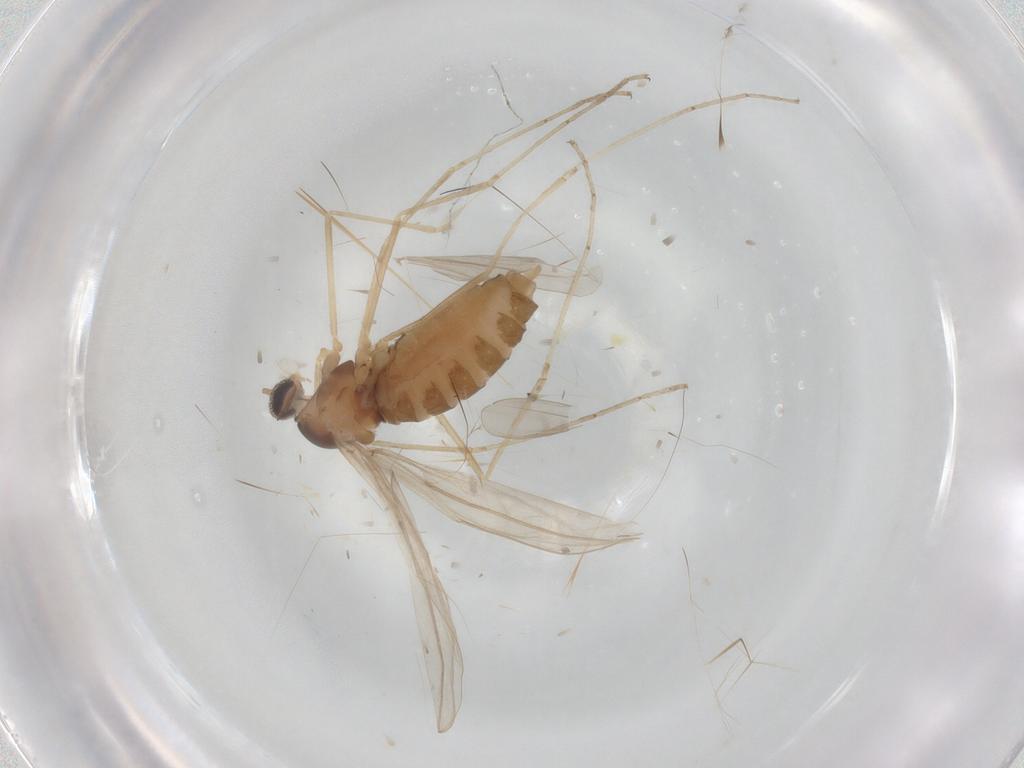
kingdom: Animalia
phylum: Arthropoda
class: Insecta
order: Diptera
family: Cecidomyiidae
